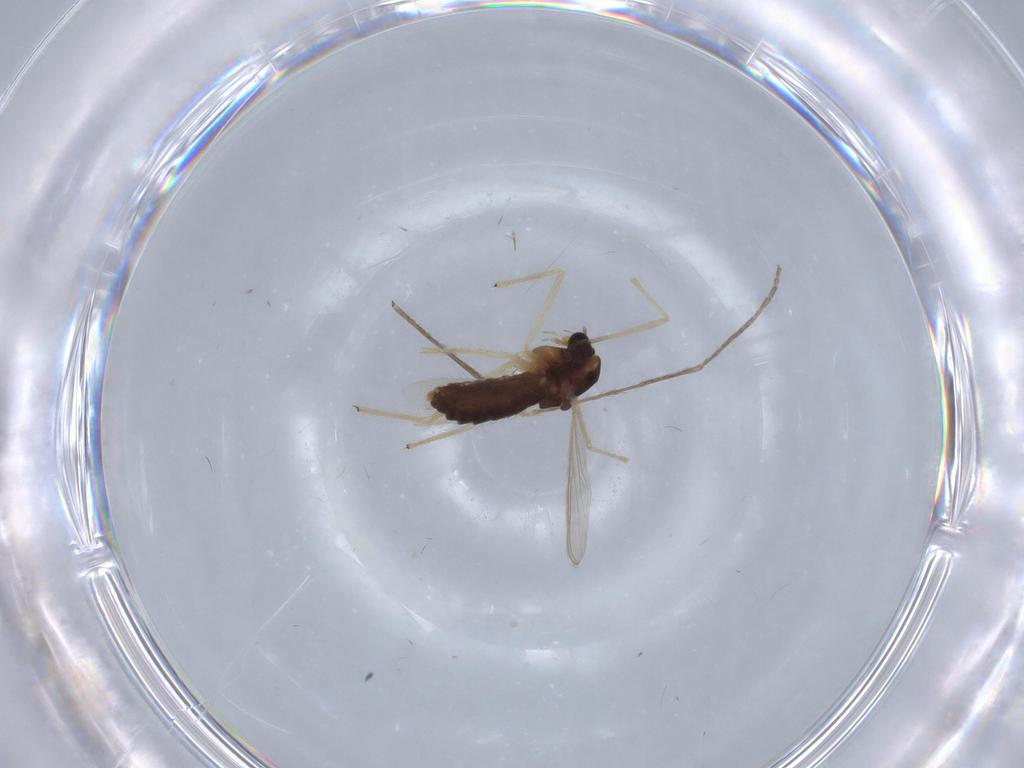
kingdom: Animalia
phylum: Arthropoda
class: Insecta
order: Diptera
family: Chironomidae
